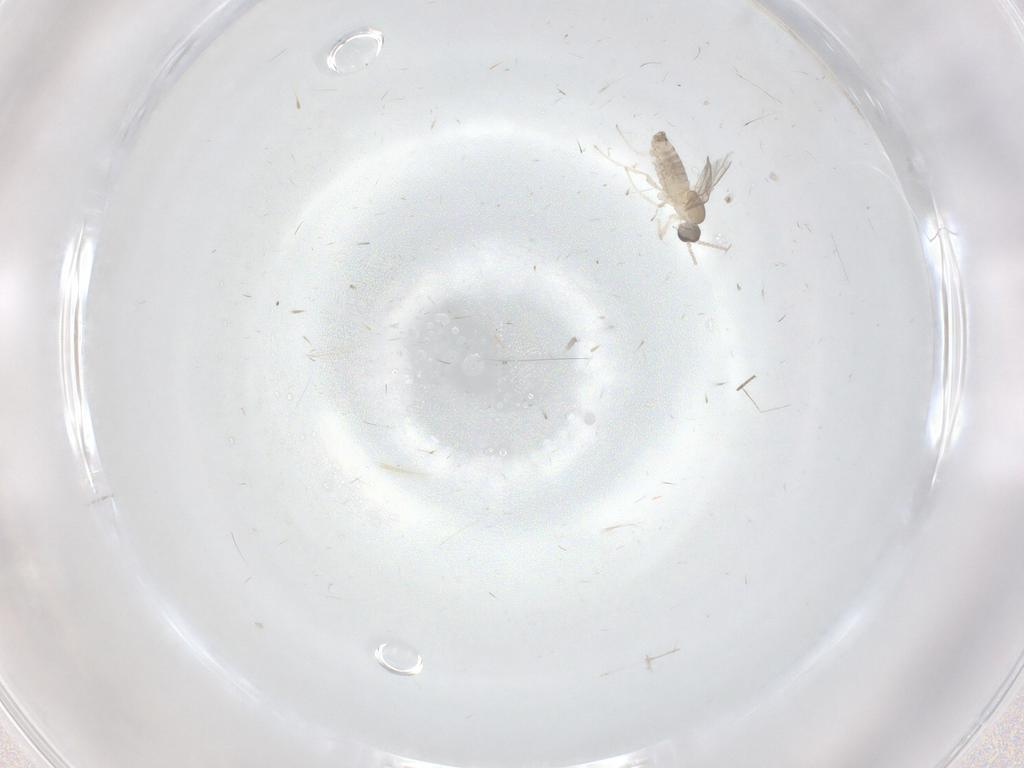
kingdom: Animalia
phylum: Arthropoda
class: Insecta
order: Diptera
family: Cecidomyiidae
